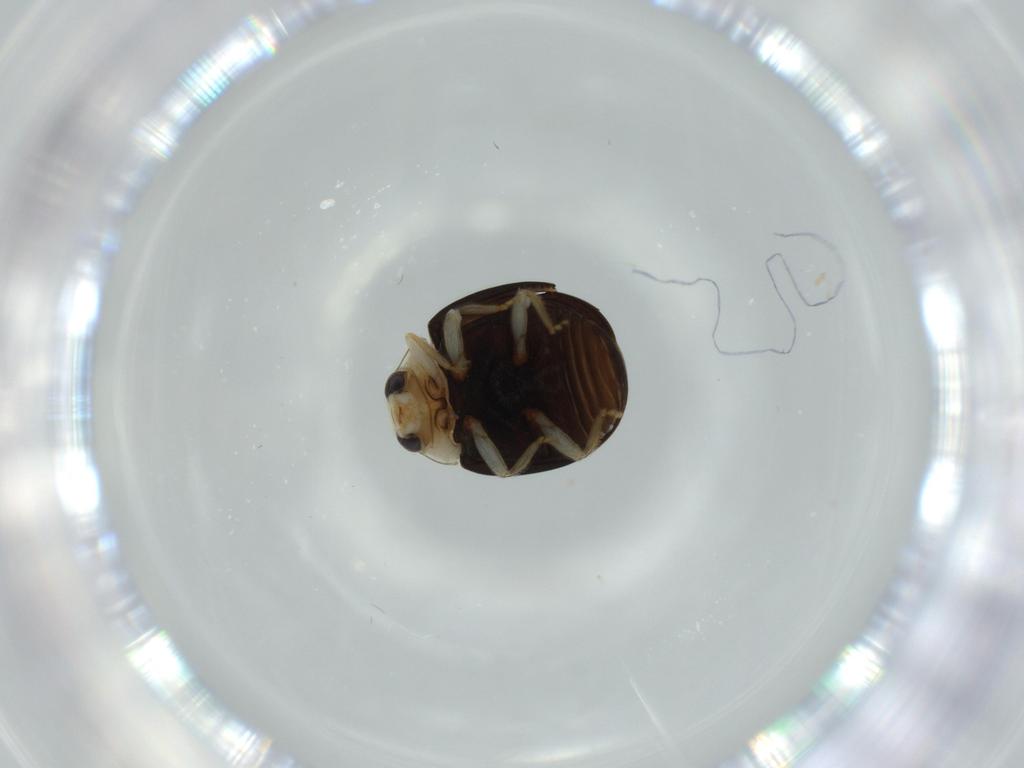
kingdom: Animalia
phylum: Arthropoda
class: Insecta
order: Coleoptera
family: Coccinellidae
